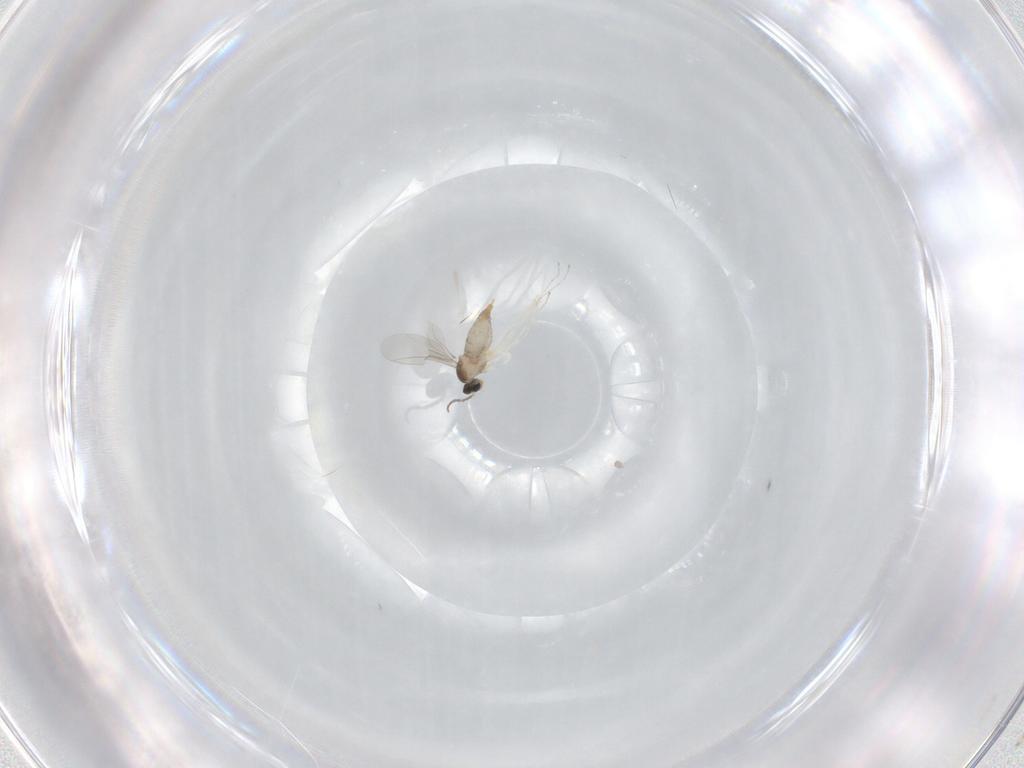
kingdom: Animalia
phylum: Arthropoda
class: Insecta
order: Diptera
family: Cecidomyiidae
